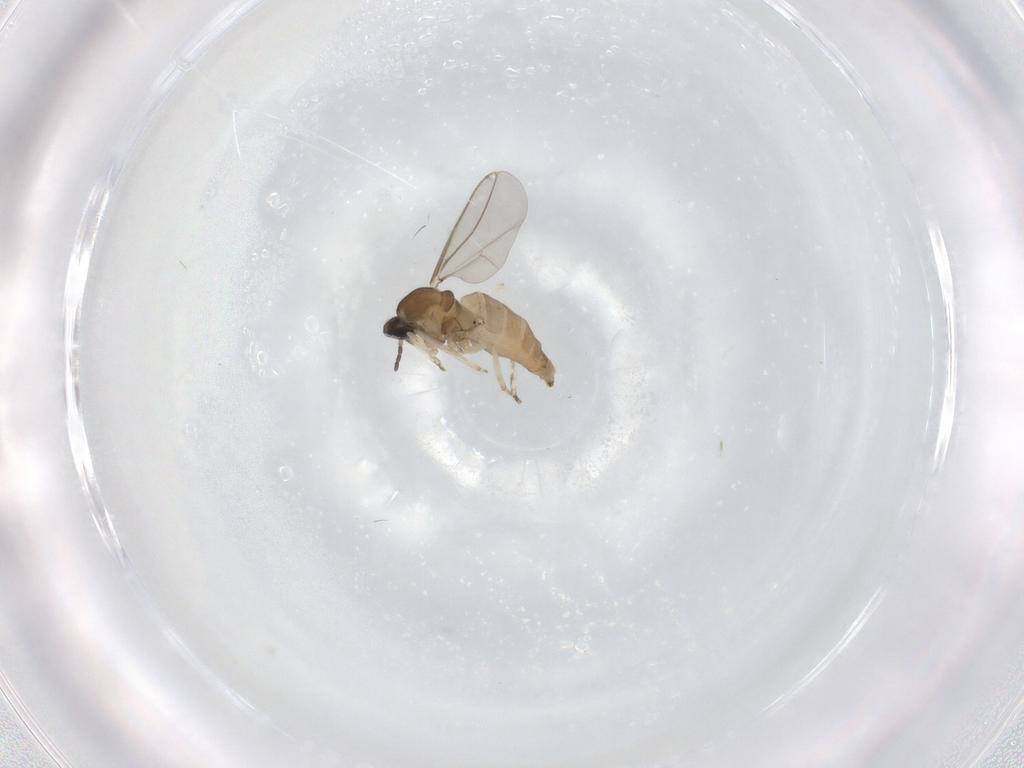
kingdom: Animalia
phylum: Arthropoda
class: Insecta
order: Diptera
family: Cecidomyiidae
